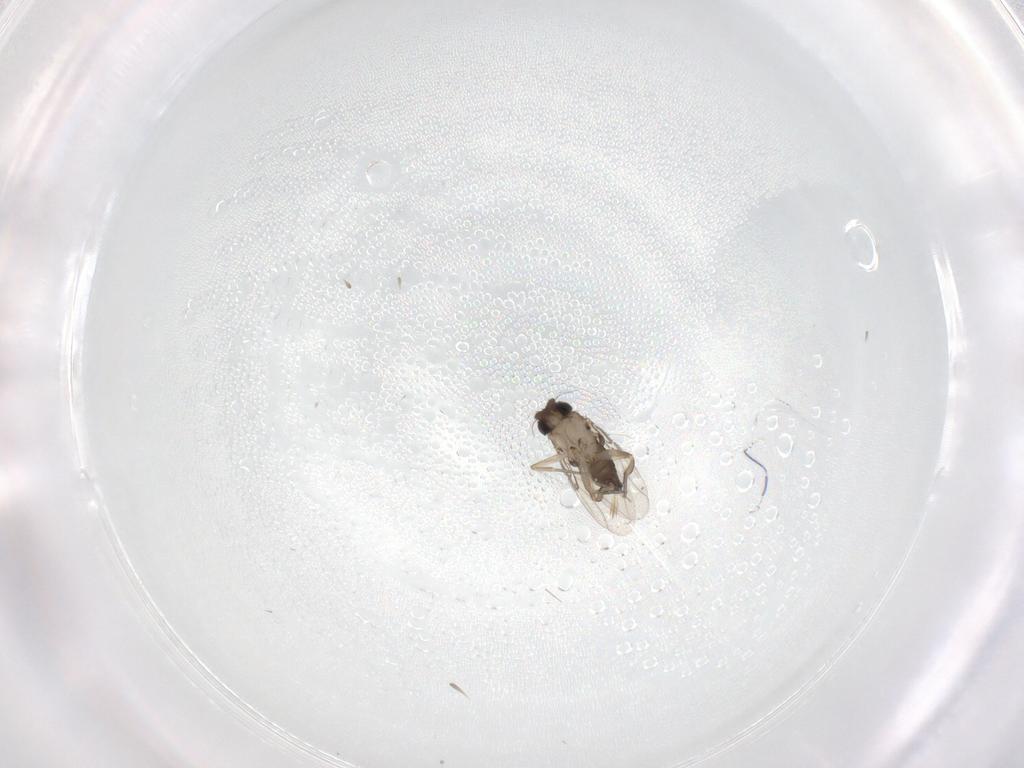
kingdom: Animalia
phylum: Arthropoda
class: Insecta
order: Diptera
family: Phoridae
